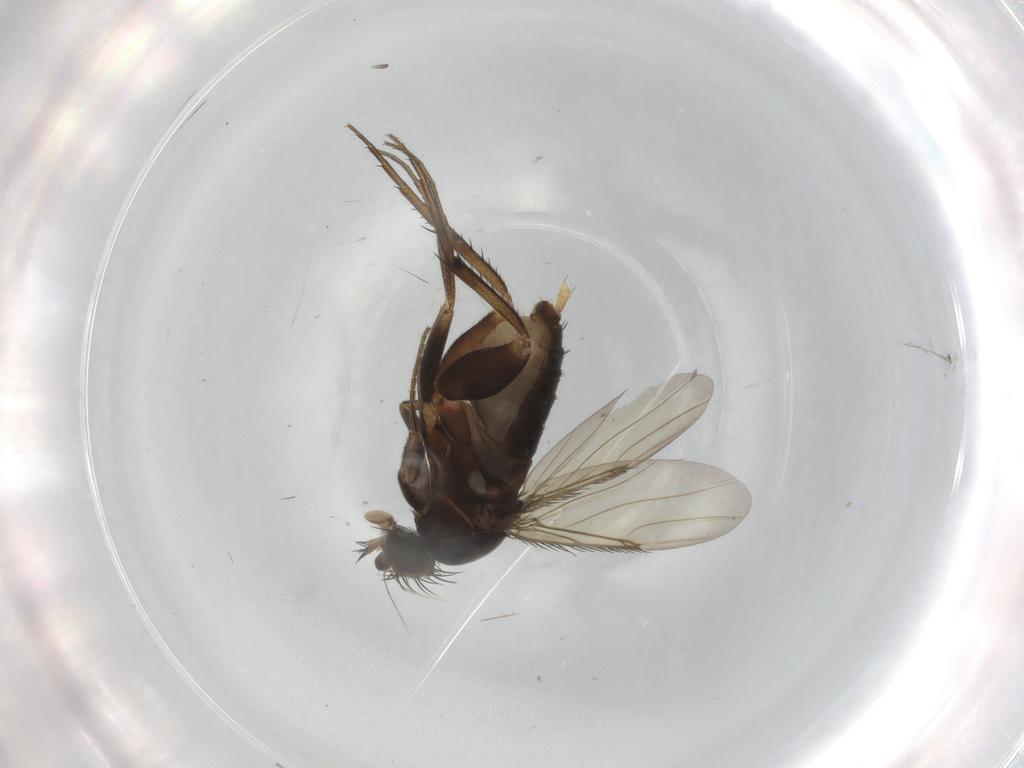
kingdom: Animalia
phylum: Arthropoda
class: Insecta
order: Diptera
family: Phoridae
